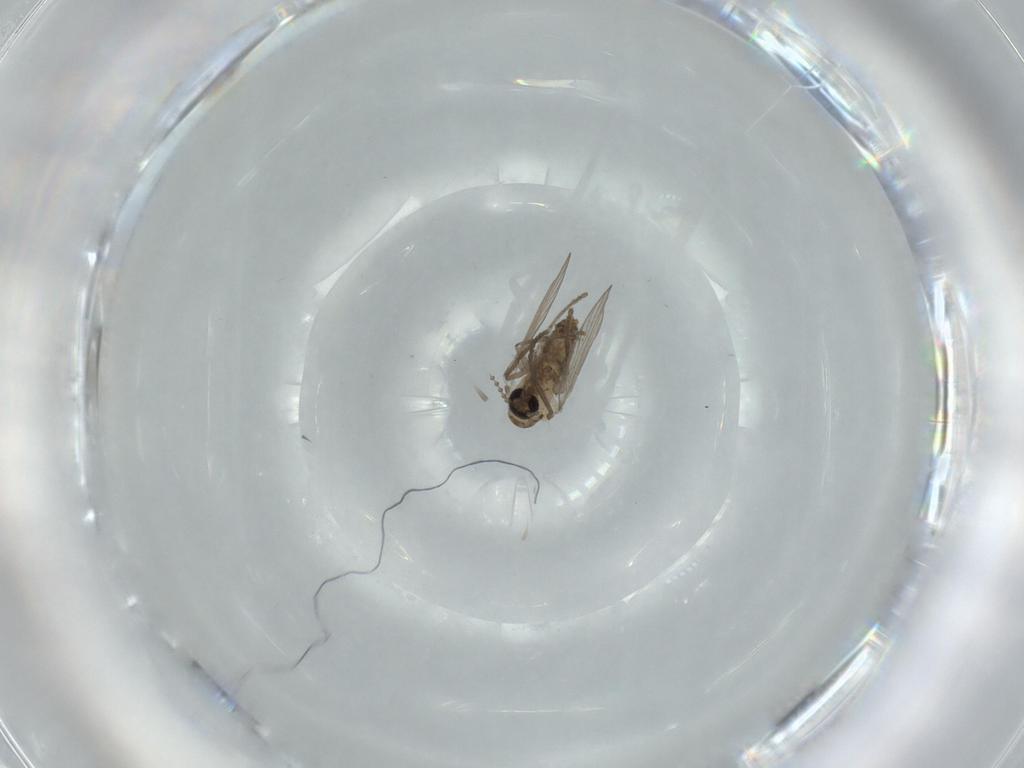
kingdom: Animalia
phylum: Arthropoda
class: Insecta
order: Diptera
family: Psychodidae
